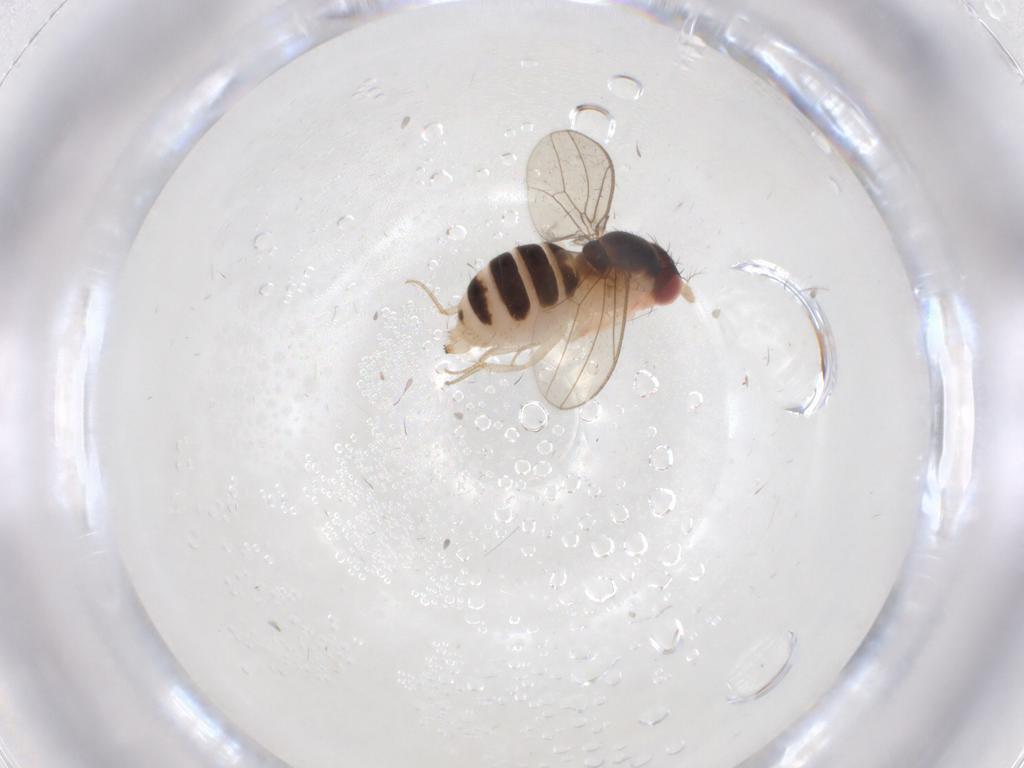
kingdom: Animalia
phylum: Arthropoda
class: Insecta
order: Diptera
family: Drosophilidae
